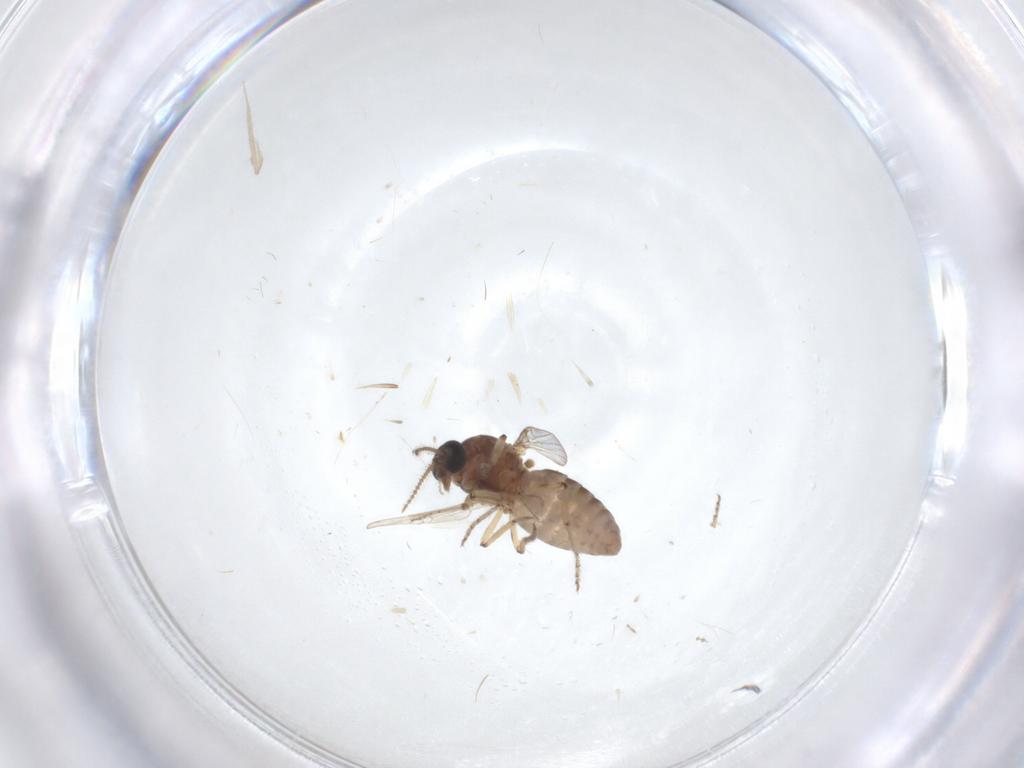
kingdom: Animalia
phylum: Arthropoda
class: Insecta
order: Diptera
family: Ceratopogonidae
